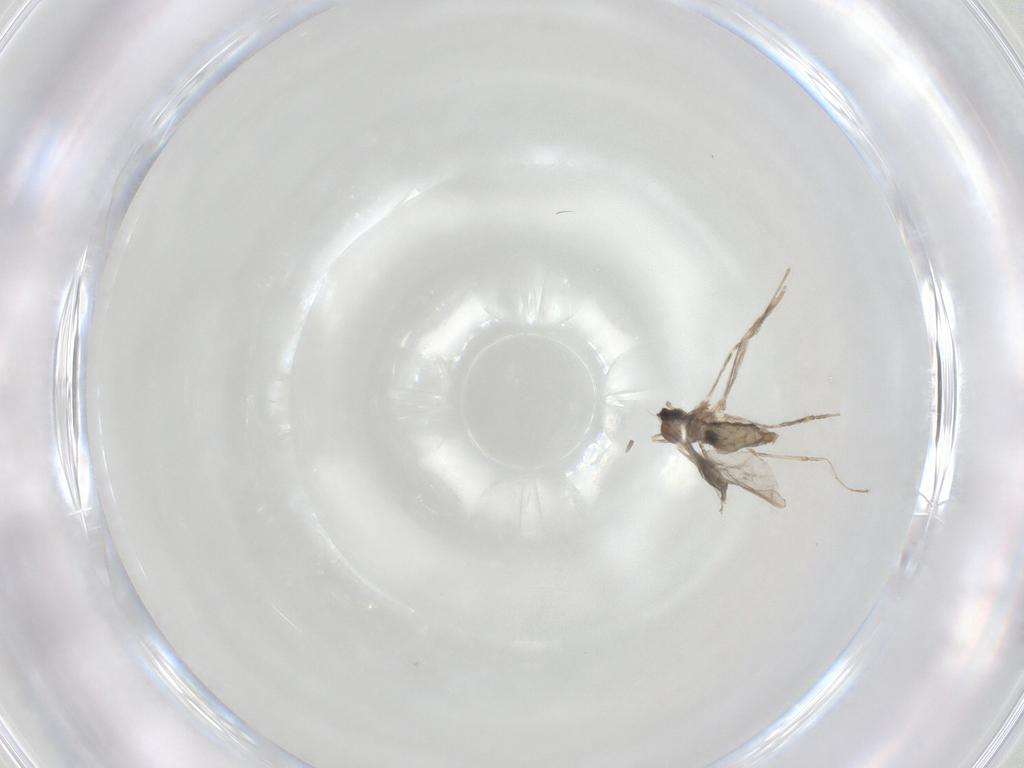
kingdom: Animalia
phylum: Arthropoda
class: Insecta
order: Diptera
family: Cecidomyiidae
